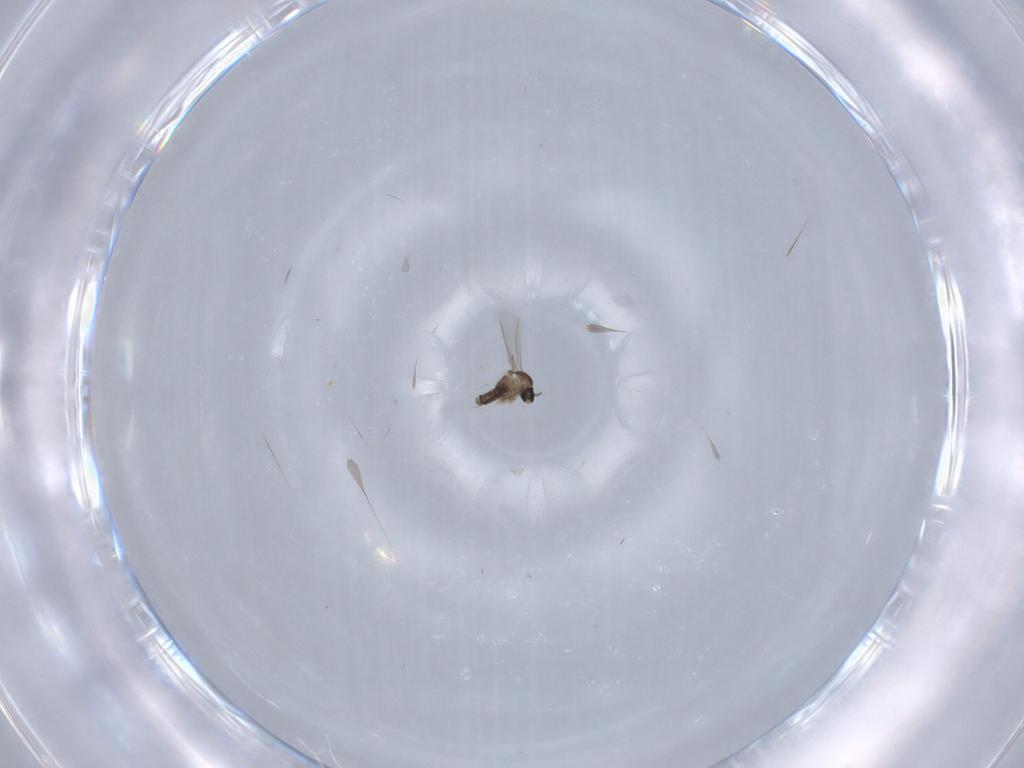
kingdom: Animalia
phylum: Arthropoda
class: Insecta
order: Diptera
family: Cecidomyiidae
